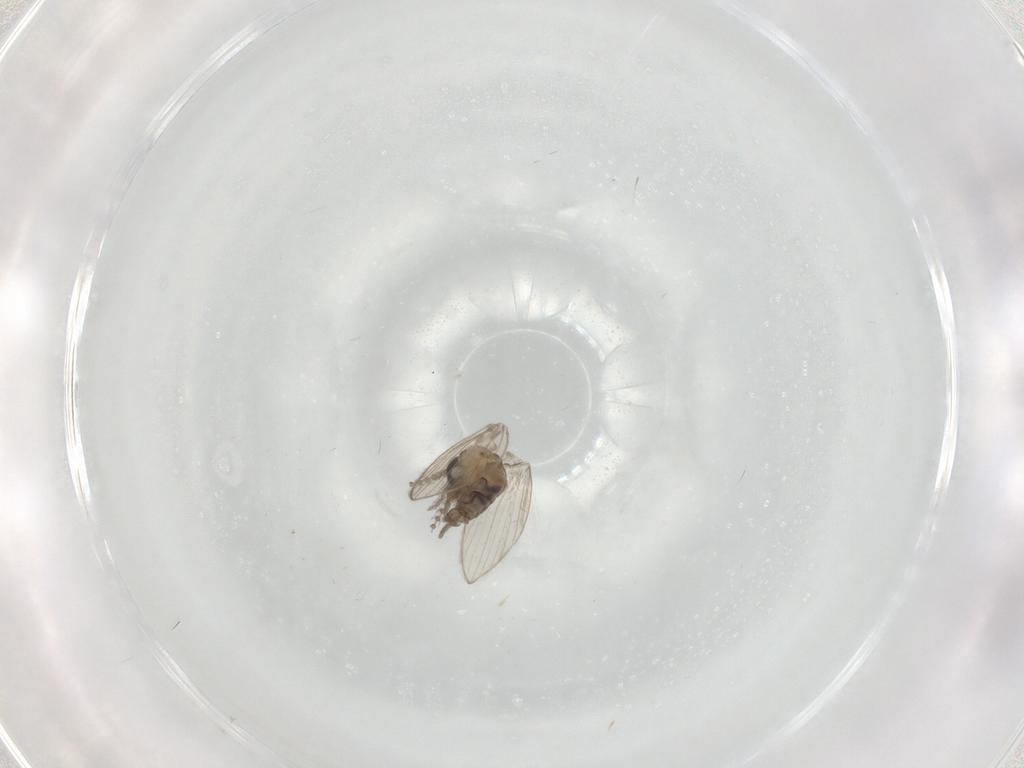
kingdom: Animalia
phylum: Arthropoda
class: Insecta
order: Diptera
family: Psychodidae
